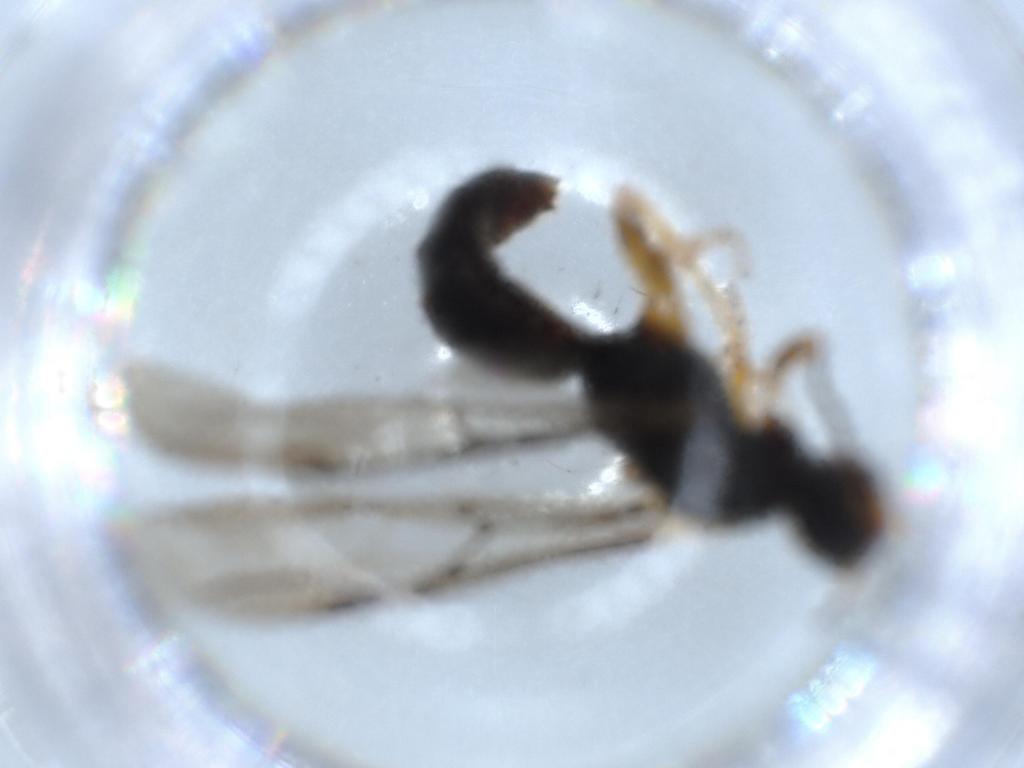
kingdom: Animalia
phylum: Arthropoda
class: Insecta
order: Hymenoptera
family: Bethylidae
